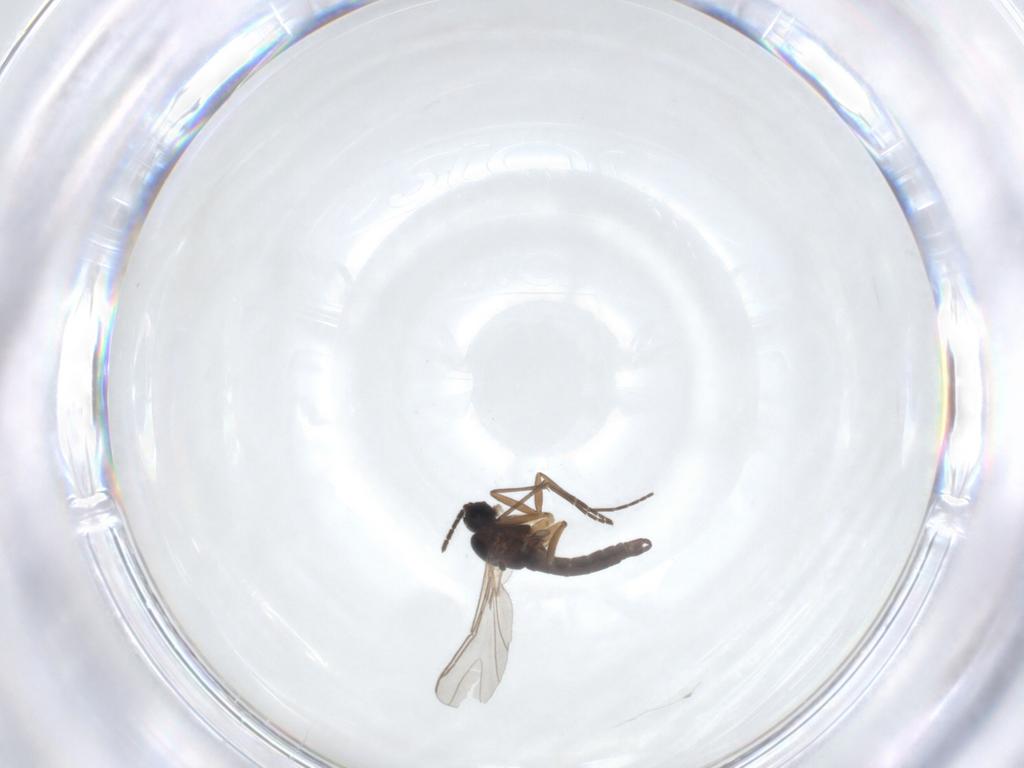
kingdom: Animalia
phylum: Arthropoda
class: Insecta
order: Diptera
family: Sciaridae
